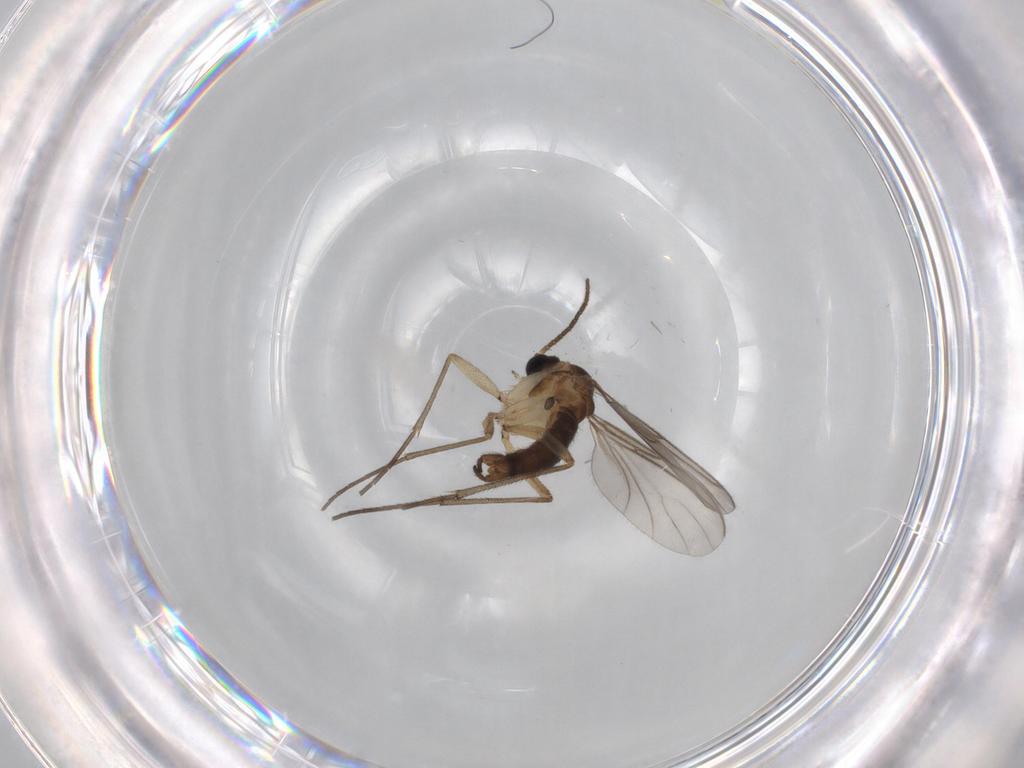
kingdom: Animalia
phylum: Arthropoda
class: Insecta
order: Diptera
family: Sciaridae
